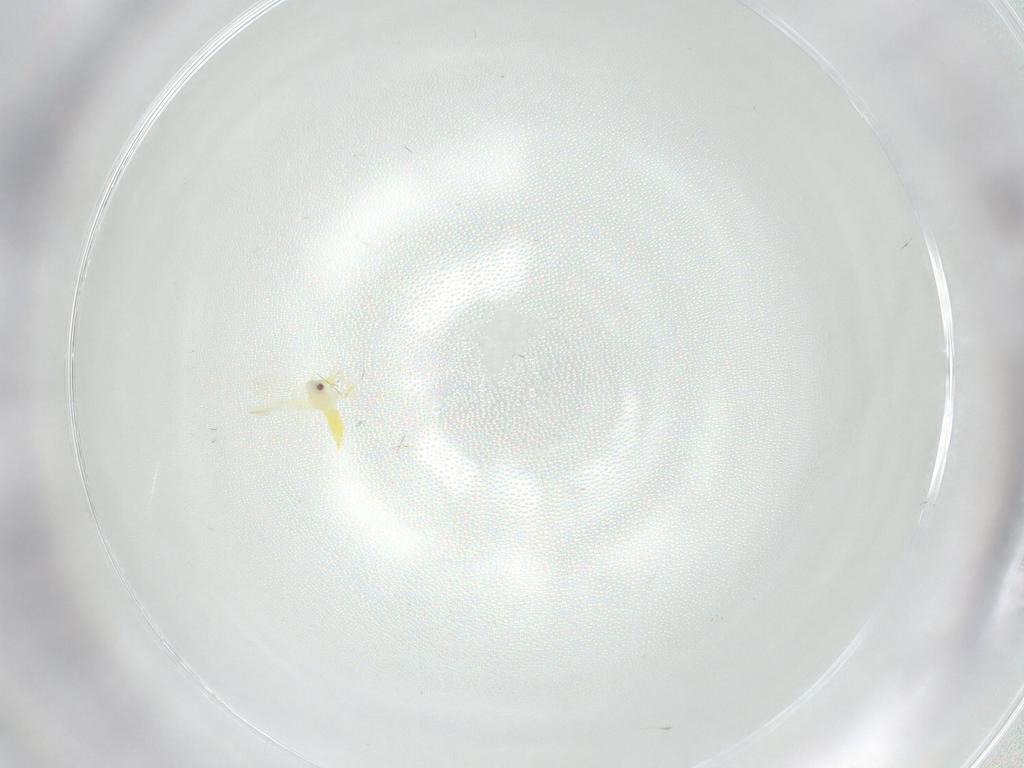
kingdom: Animalia
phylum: Arthropoda
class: Insecta
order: Hemiptera
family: Aleyrodidae
